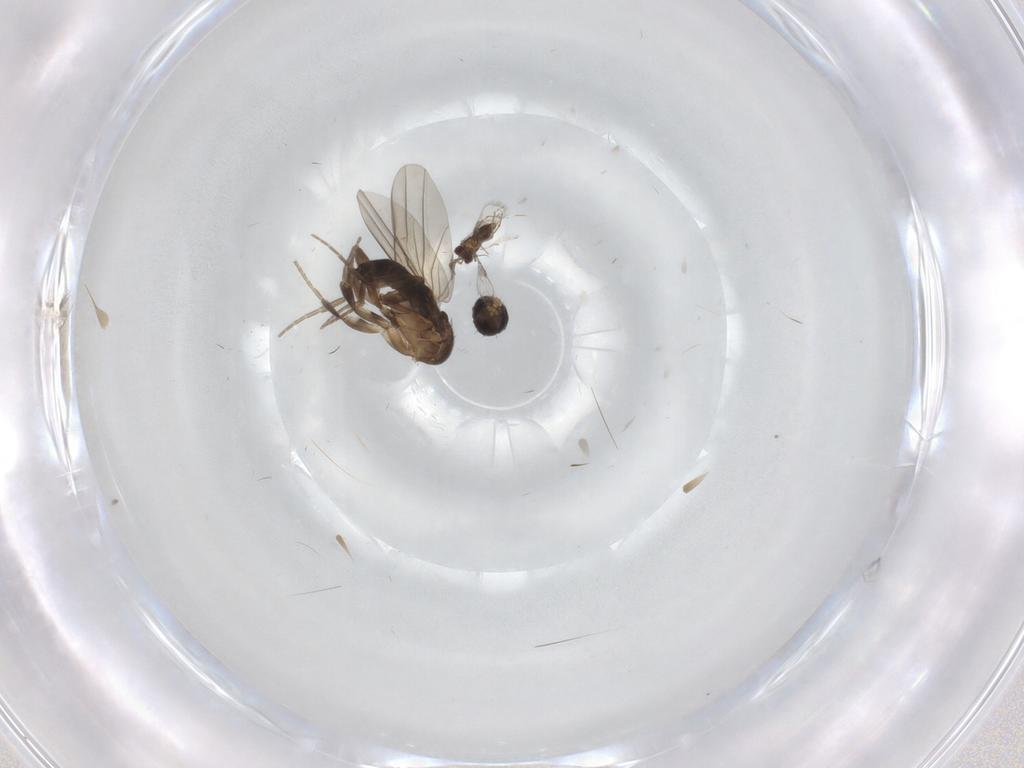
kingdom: Animalia
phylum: Arthropoda
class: Insecta
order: Diptera
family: Phoridae
